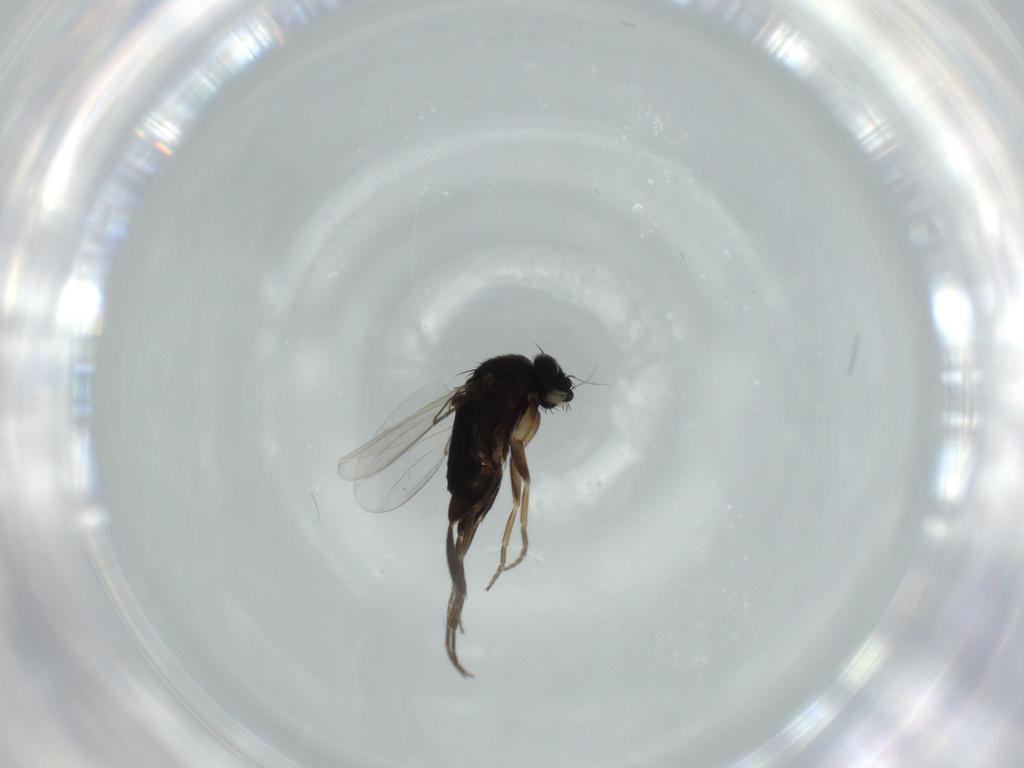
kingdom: Animalia
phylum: Arthropoda
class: Insecta
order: Diptera
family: Phoridae
